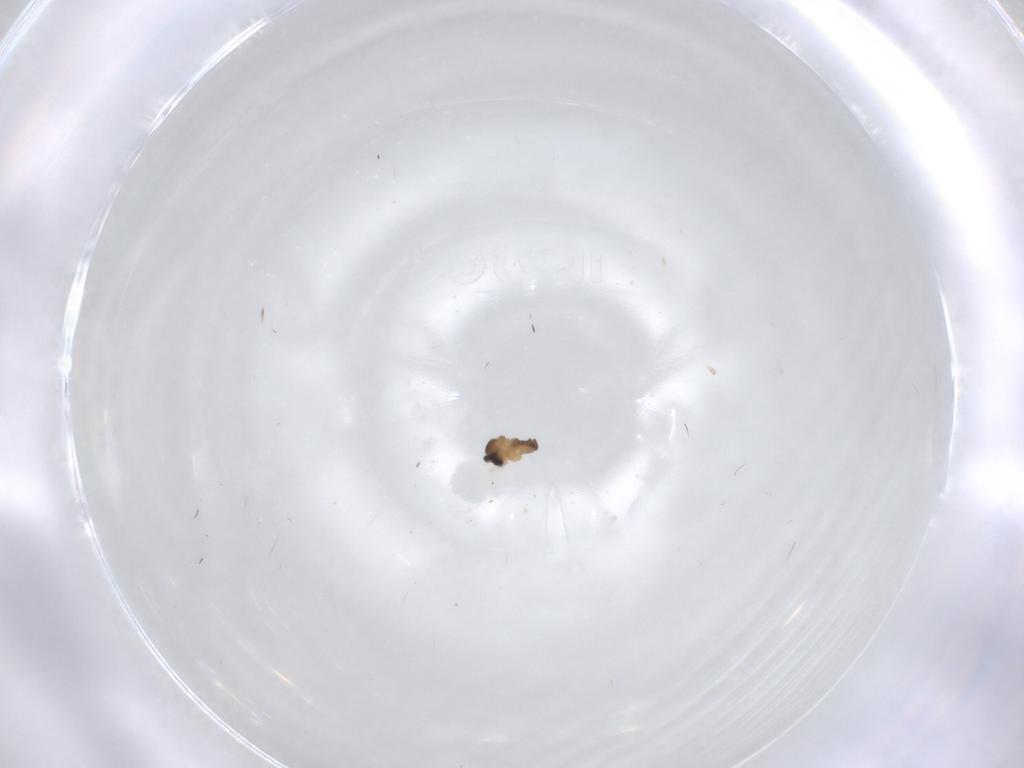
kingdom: Animalia
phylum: Arthropoda
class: Insecta
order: Diptera
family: Cecidomyiidae
